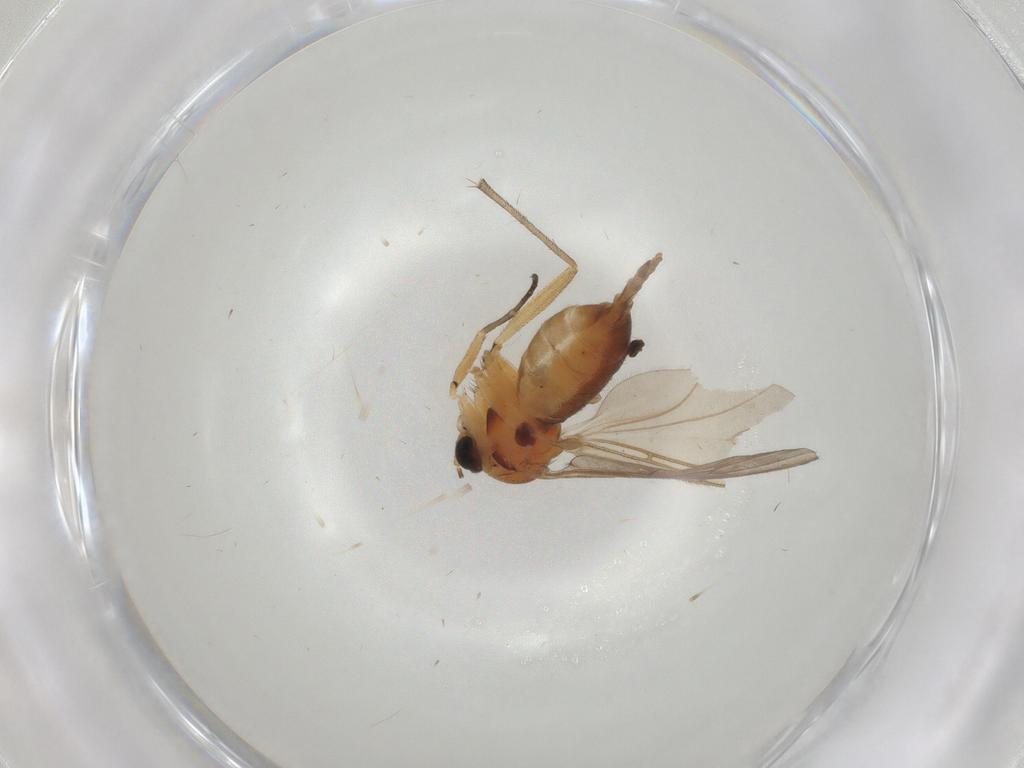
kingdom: Animalia
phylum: Arthropoda
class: Insecta
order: Diptera
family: Sciaridae
